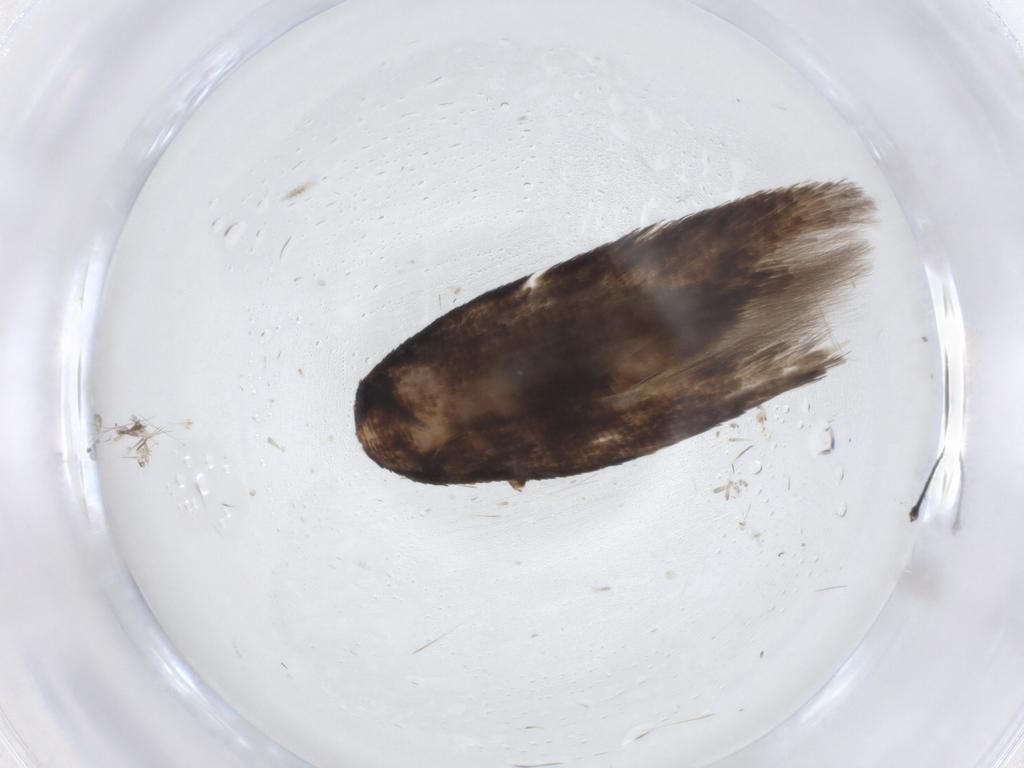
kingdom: Animalia
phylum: Arthropoda
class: Insecta
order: Lepidoptera
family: Cosmopterigidae
